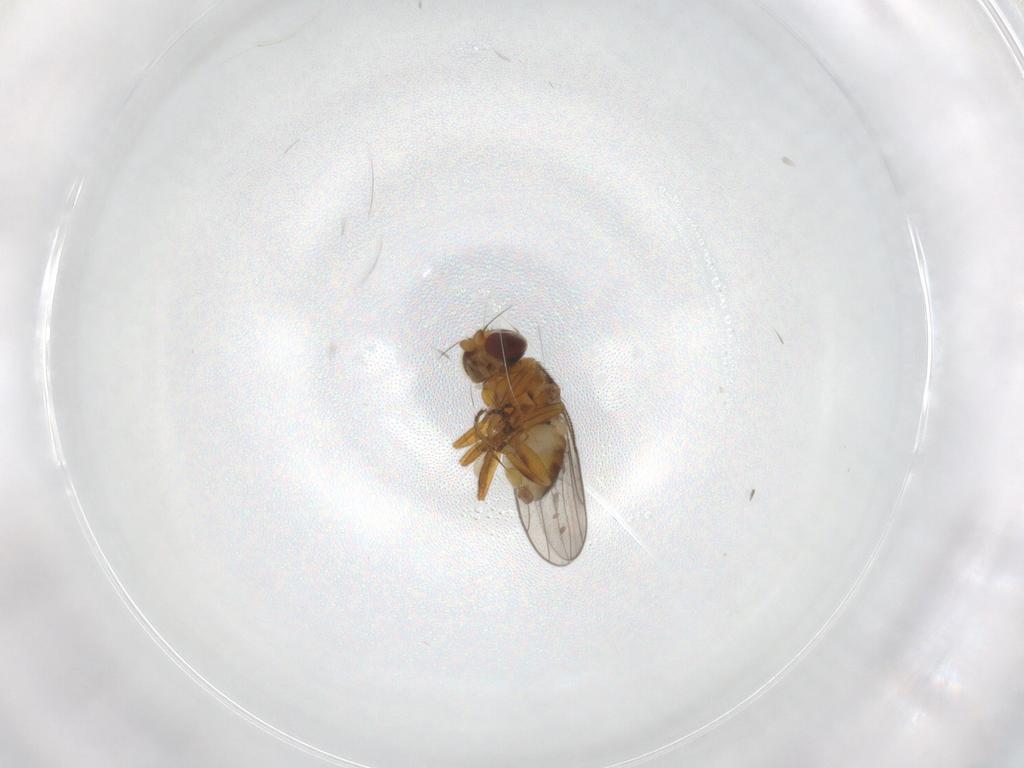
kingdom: Animalia
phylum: Arthropoda
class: Insecta
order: Diptera
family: Chloropidae
